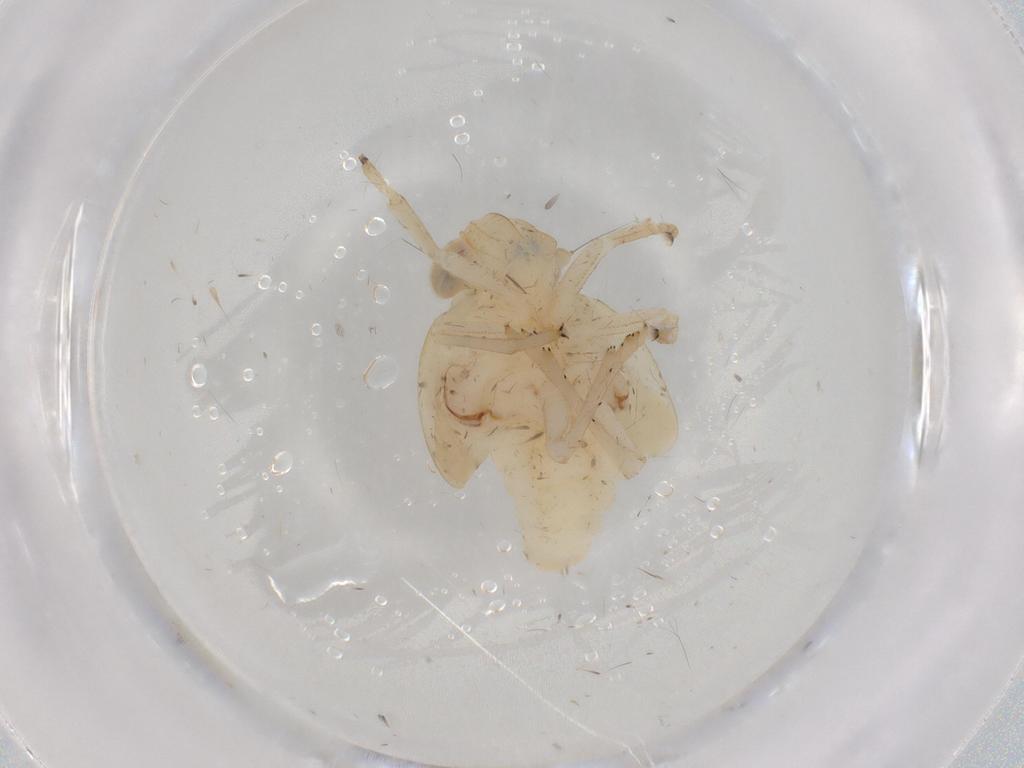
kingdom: Animalia
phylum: Arthropoda
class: Insecta
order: Hemiptera
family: Nogodinidae
